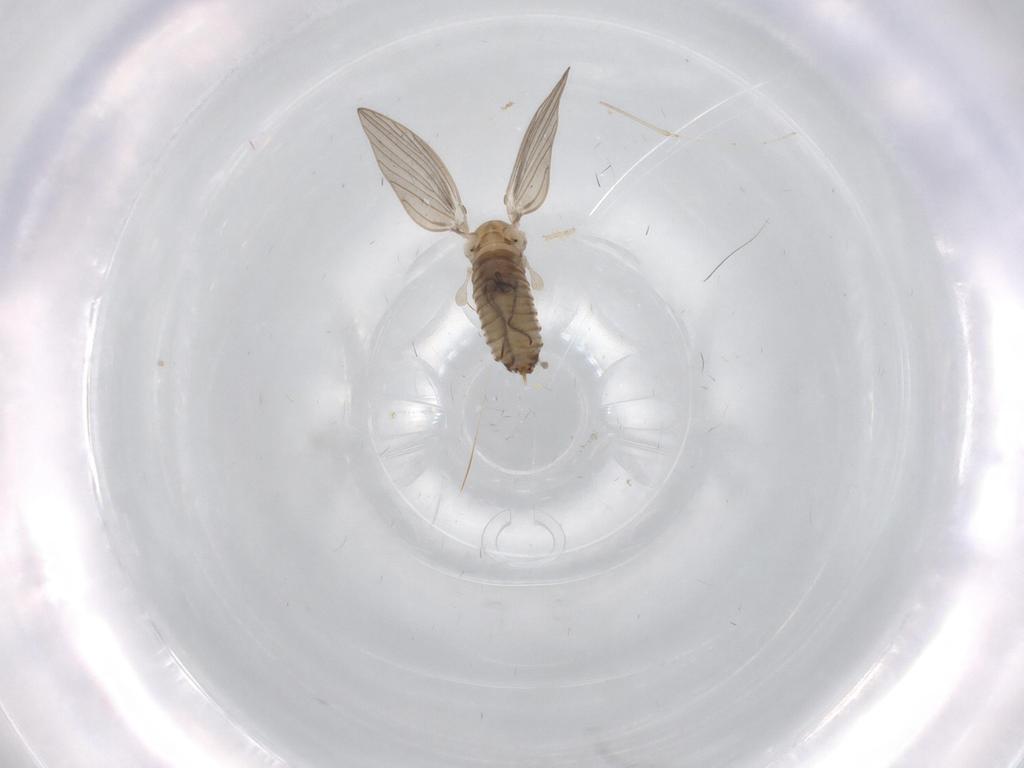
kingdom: Animalia
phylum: Arthropoda
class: Insecta
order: Diptera
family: Psychodidae
